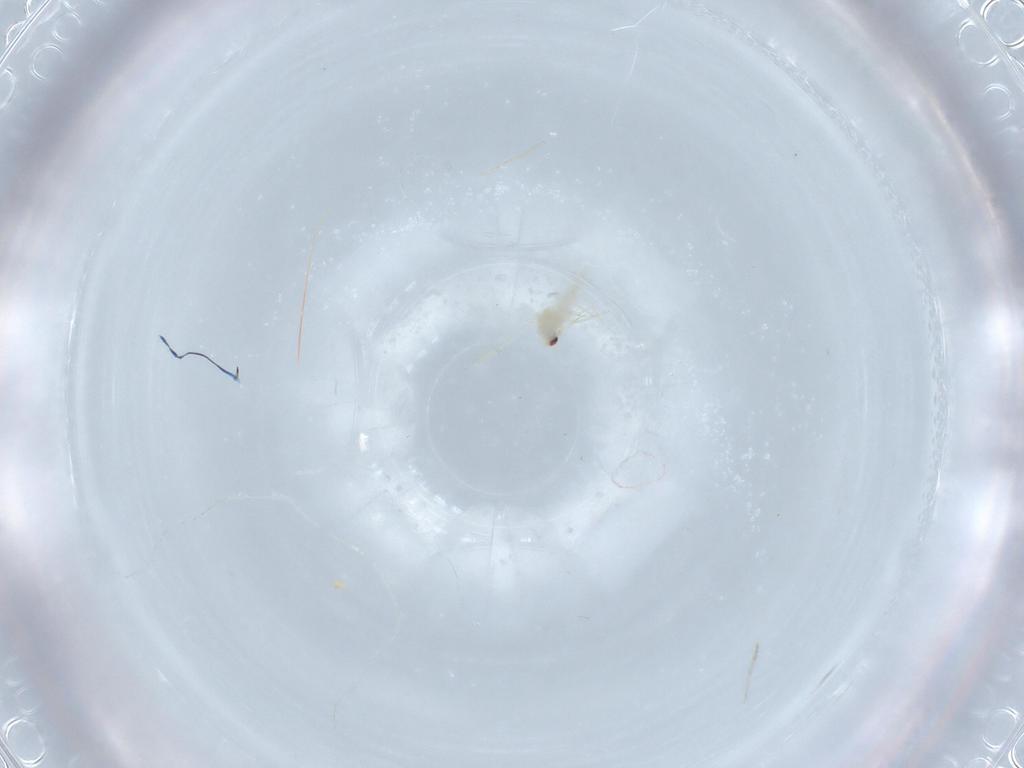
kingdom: Animalia
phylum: Arthropoda
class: Insecta
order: Hemiptera
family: Aleyrodidae
